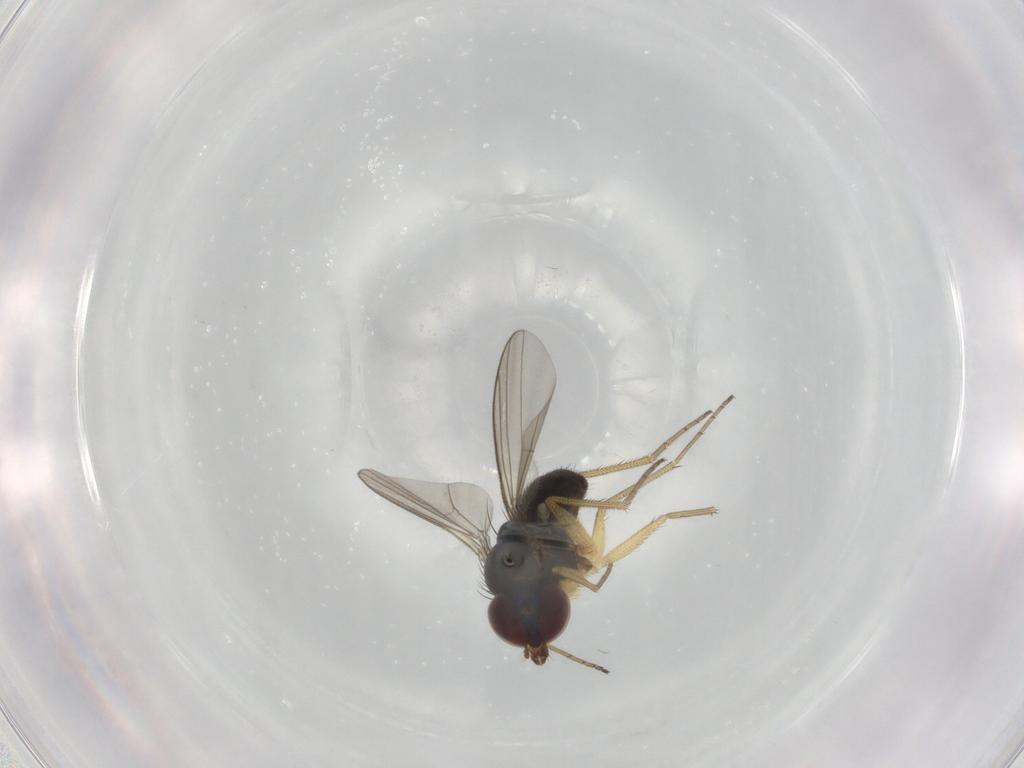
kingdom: Animalia
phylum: Arthropoda
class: Insecta
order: Diptera
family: Dolichopodidae
